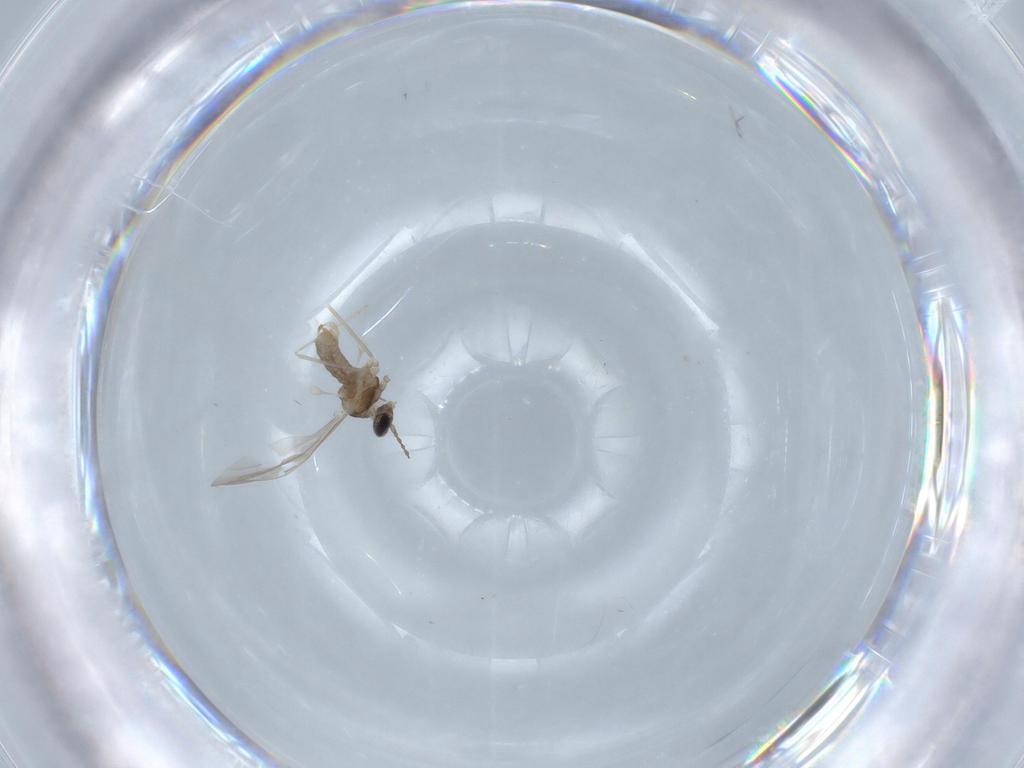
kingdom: Animalia
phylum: Arthropoda
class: Insecta
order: Diptera
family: Cecidomyiidae
